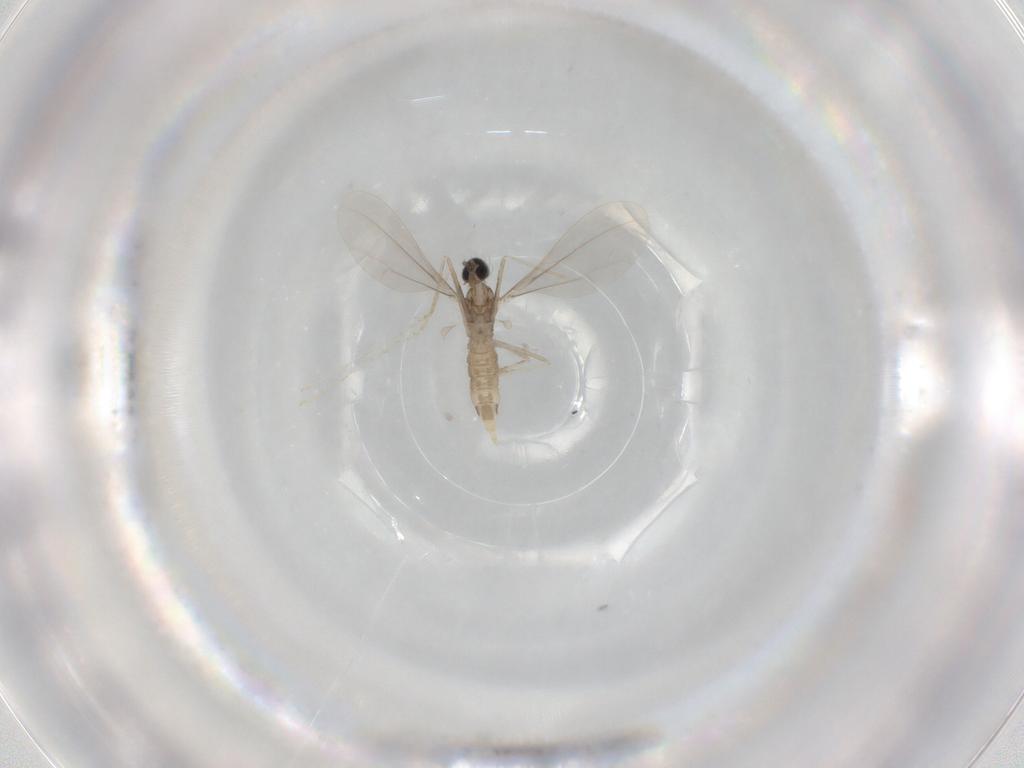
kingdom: Animalia
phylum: Arthropoda
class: Insecta
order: Diptera
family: Cecidomyiidae
